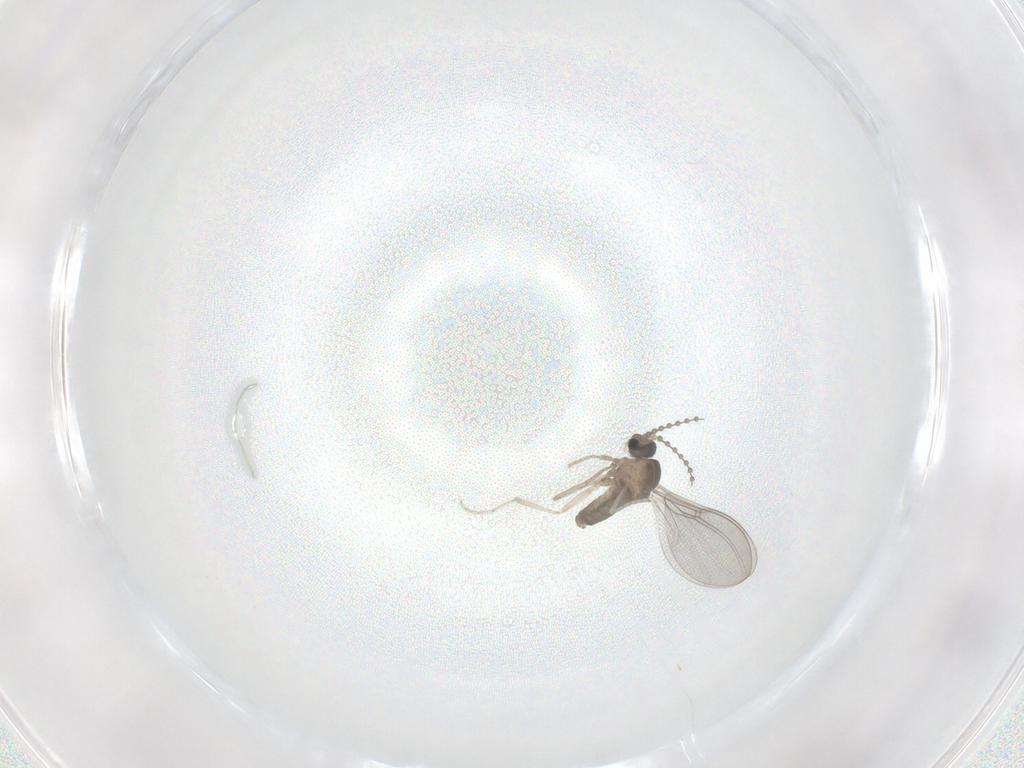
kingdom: Animalia
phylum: Arthropoda
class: Insecta
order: Diptera
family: Cecidomyiidae
